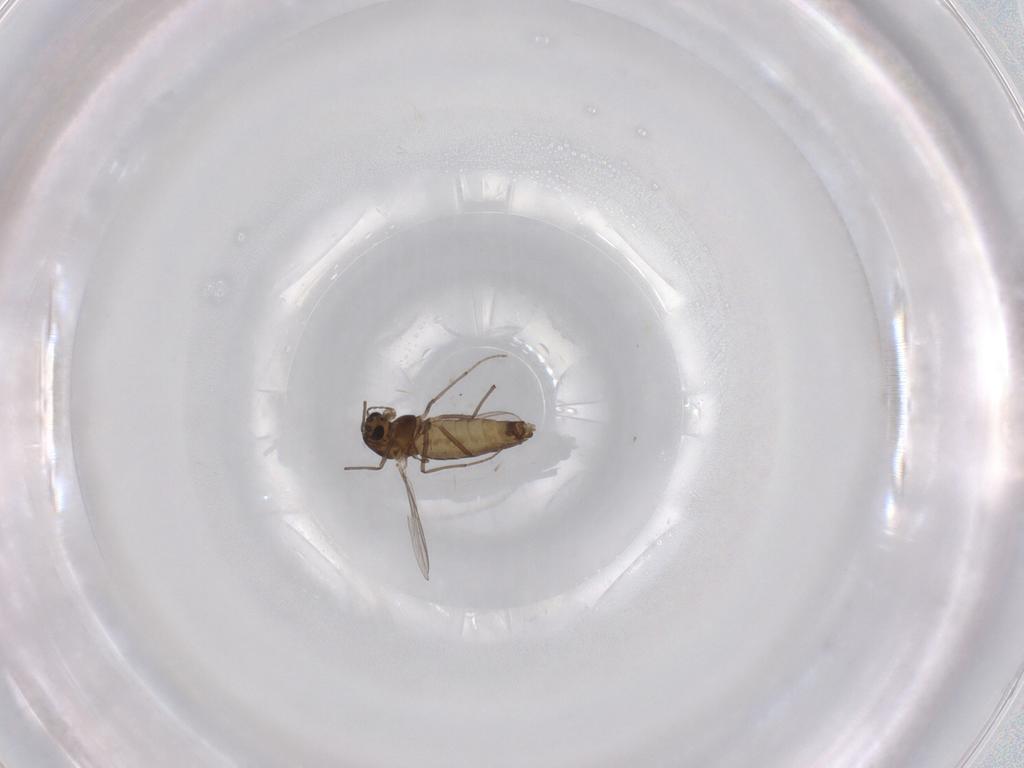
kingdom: Animalia
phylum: Arthropoda
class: Insecta
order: Diptera
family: Chironomidae
